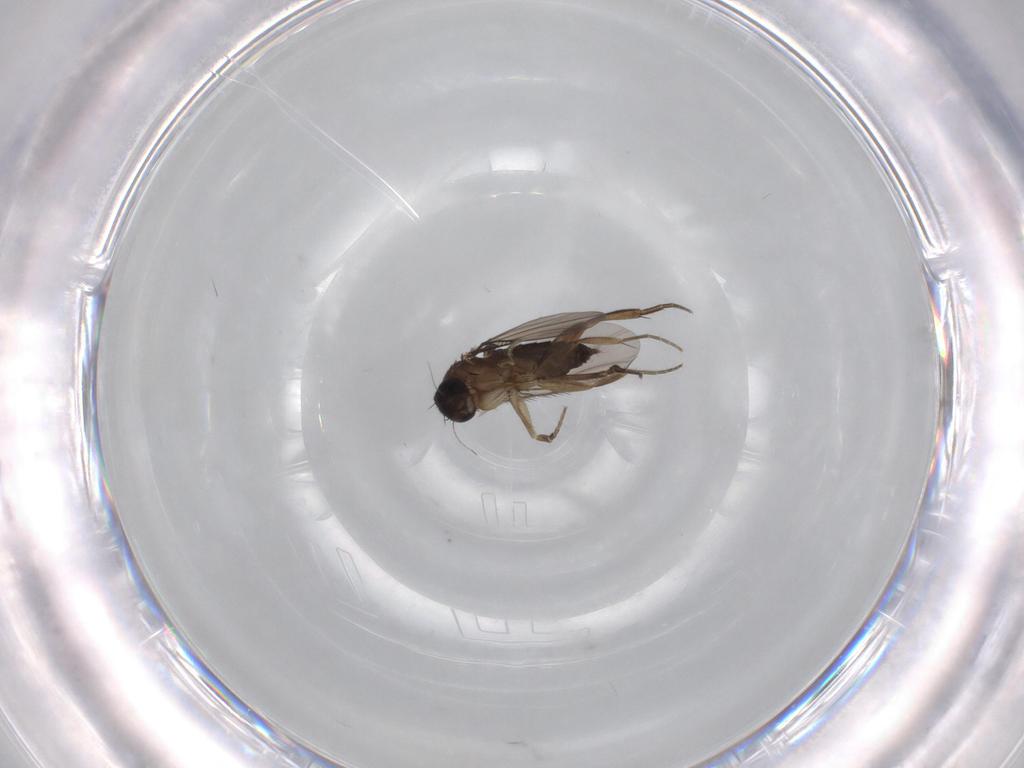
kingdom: Animalia
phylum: Arthropoda
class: Insecta
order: Diptera
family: Phoridae
